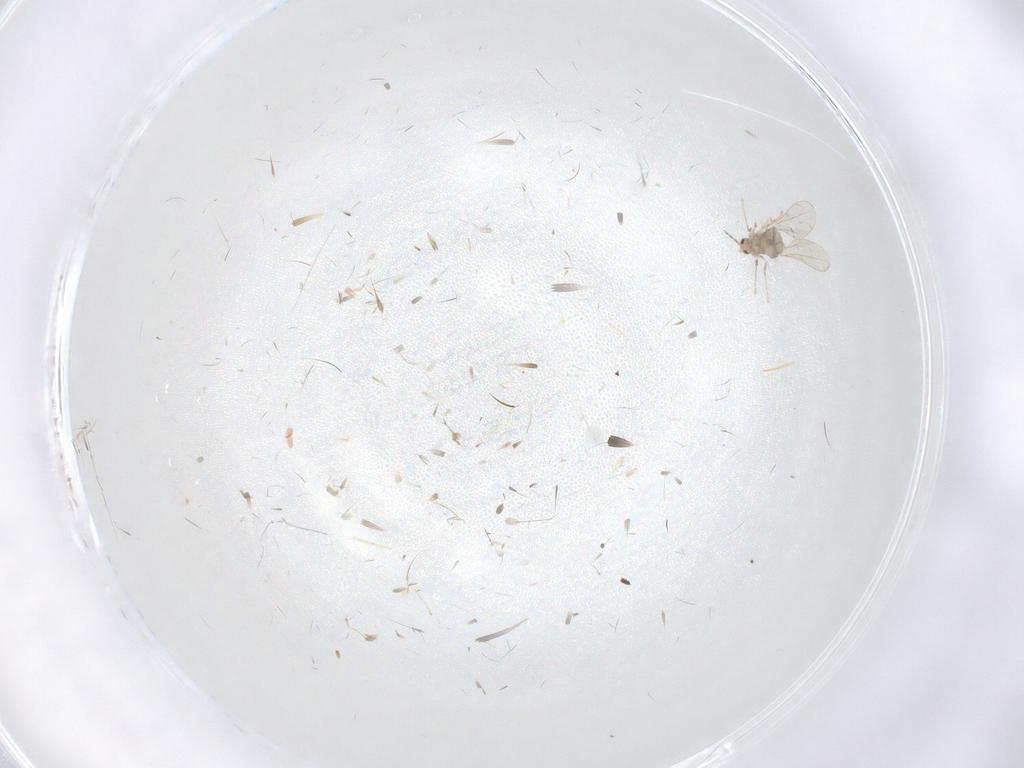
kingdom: Animalia
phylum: Arthropoda
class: Insecta
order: Diptera
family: Cecidomyiidae
